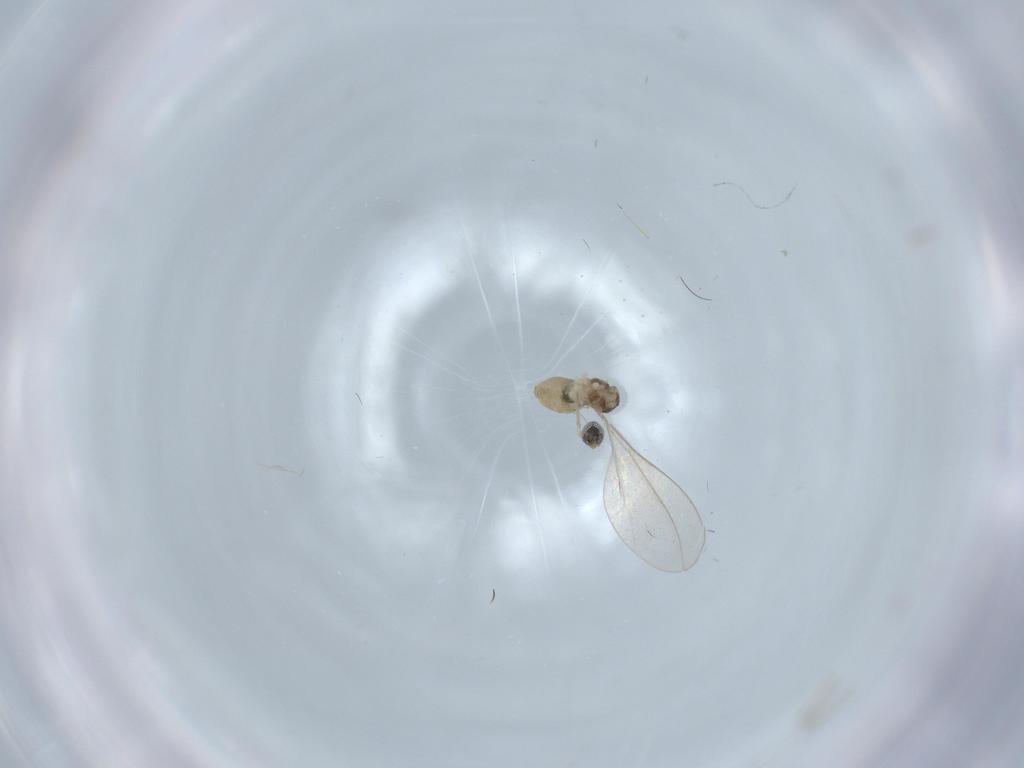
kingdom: Animalia
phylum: Arthropoda
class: Insecta
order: Diptera
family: Cecidomyiidae
